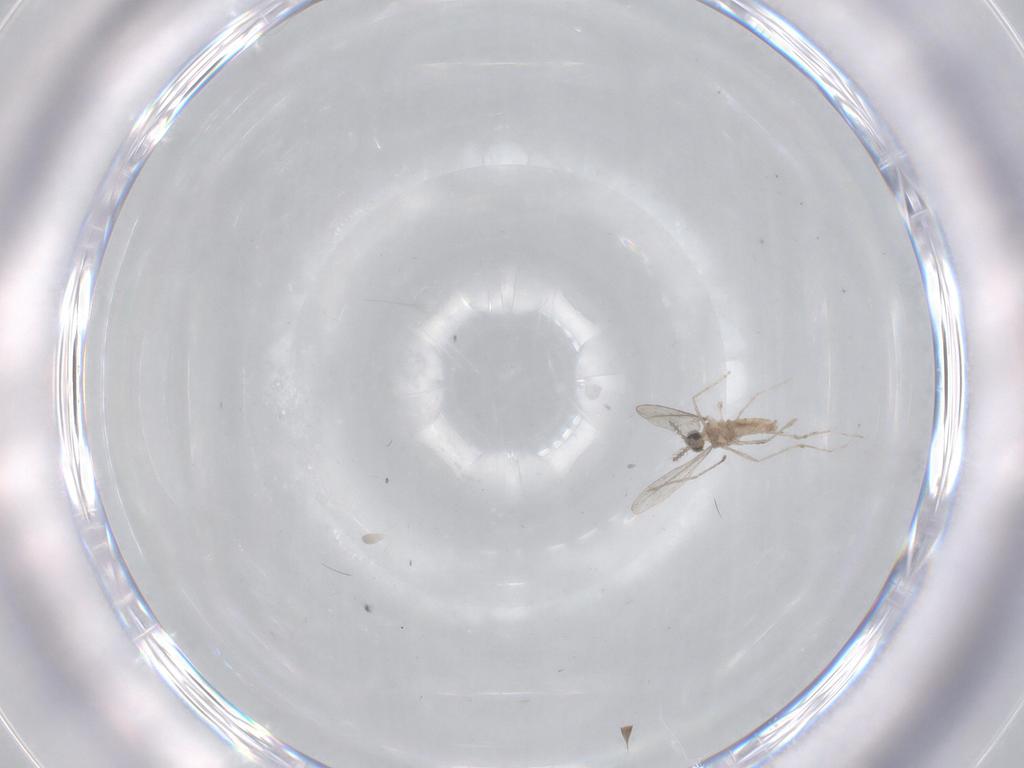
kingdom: Animalia
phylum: Arthropoda
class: Insecta
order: Diptera
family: Cecidomyiidae
